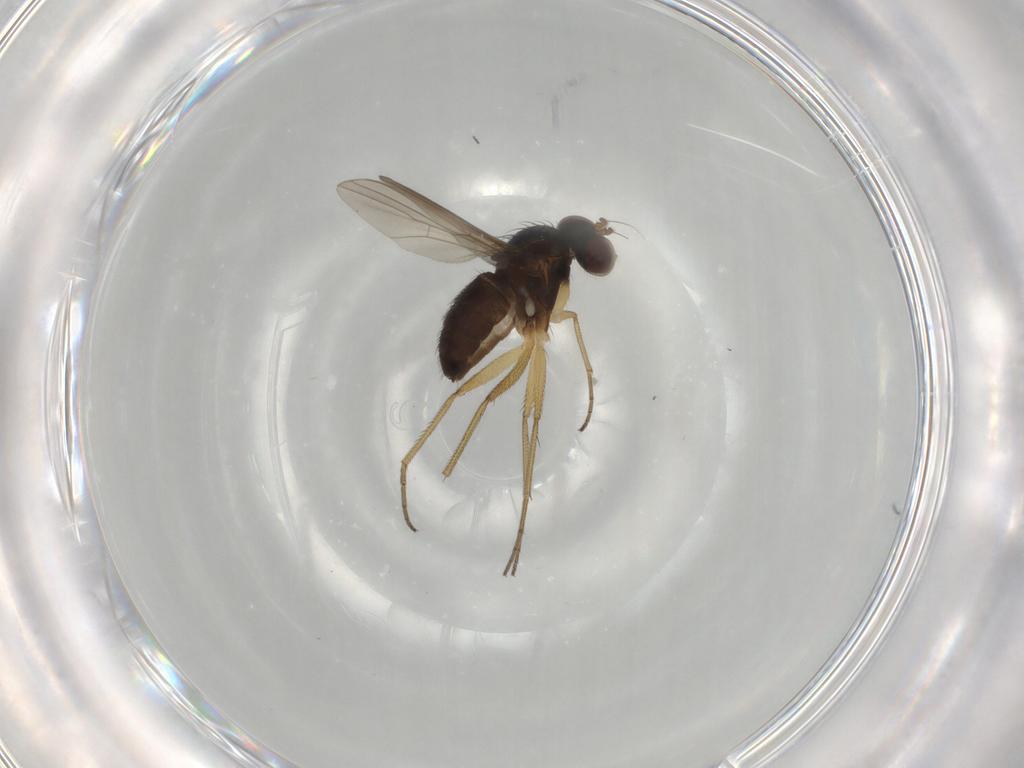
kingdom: Animalia
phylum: Arthropoda
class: Insecta
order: Diptera
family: Dolichopodidae
